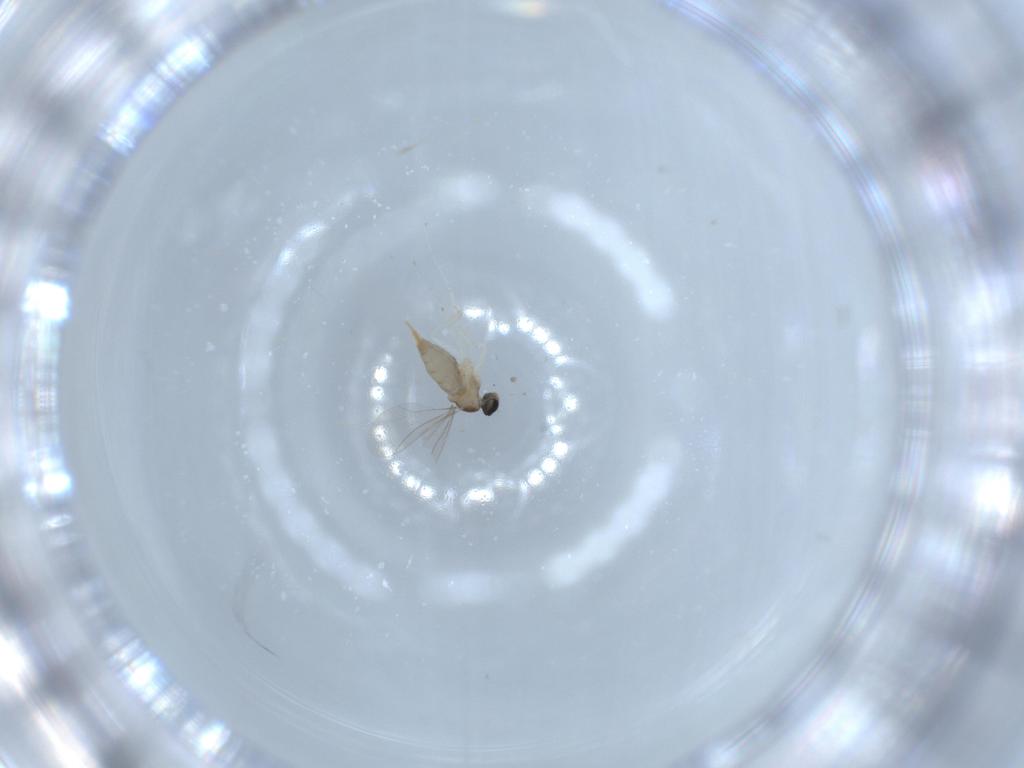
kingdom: Animalia
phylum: Arthropoda
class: Insecta
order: Diptera
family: Cecidomyiidae
